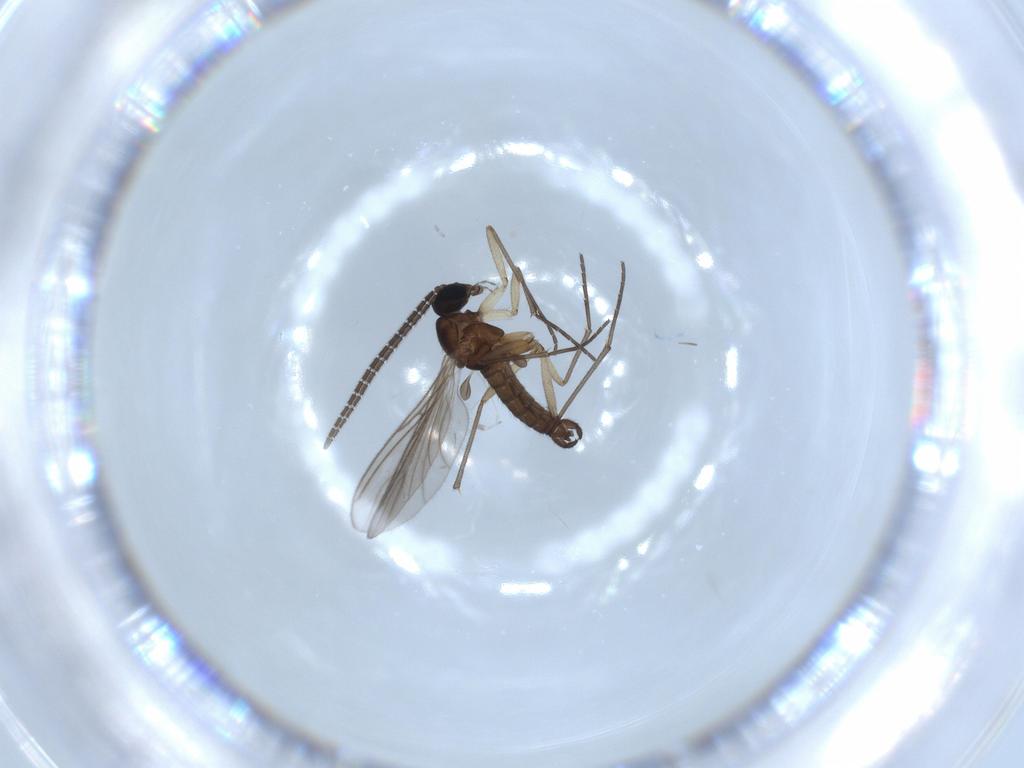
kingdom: Animalia
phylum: Arthropoda
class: Insecta
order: Diptera
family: Sciaridae
